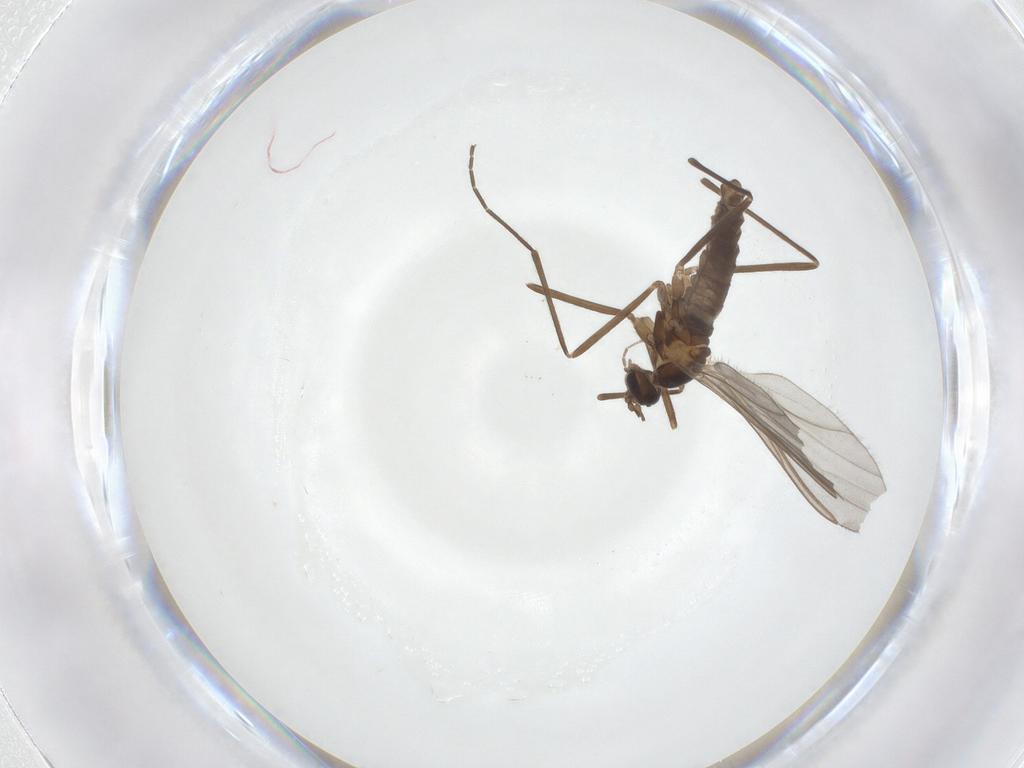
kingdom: Animalia
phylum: Arthropoda
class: Insecta
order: Diptera
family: Cecidomyiidae
